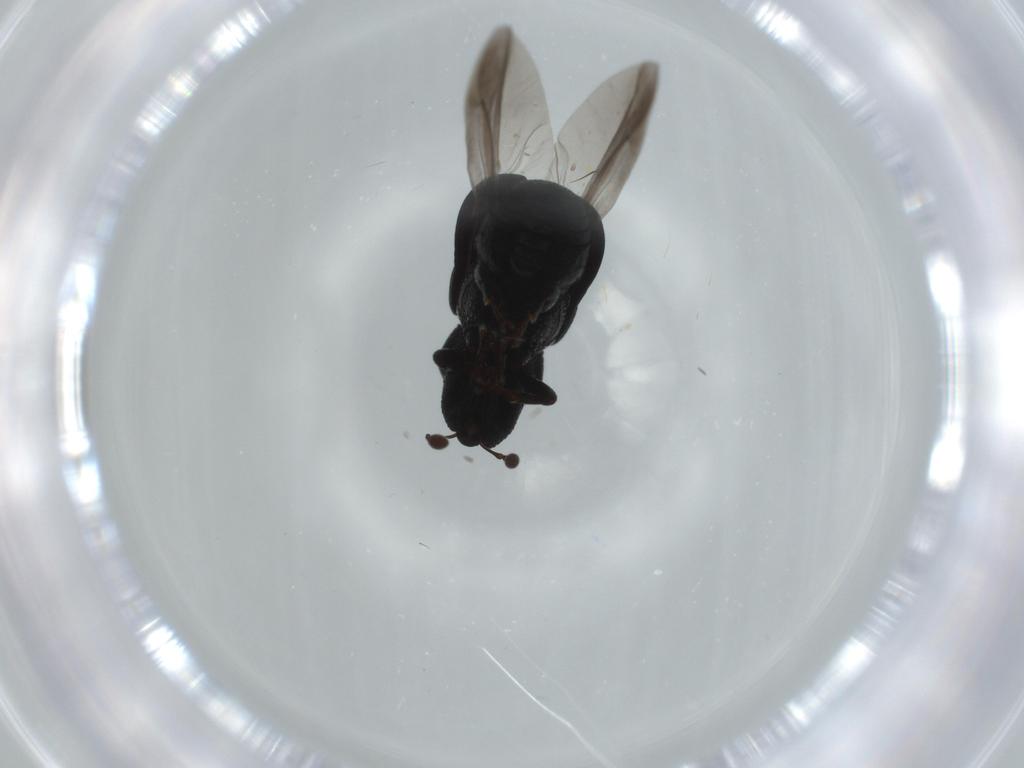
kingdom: Animalia
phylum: Arthropoda
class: Insecta
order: Coleoptera
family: Curculionidae
